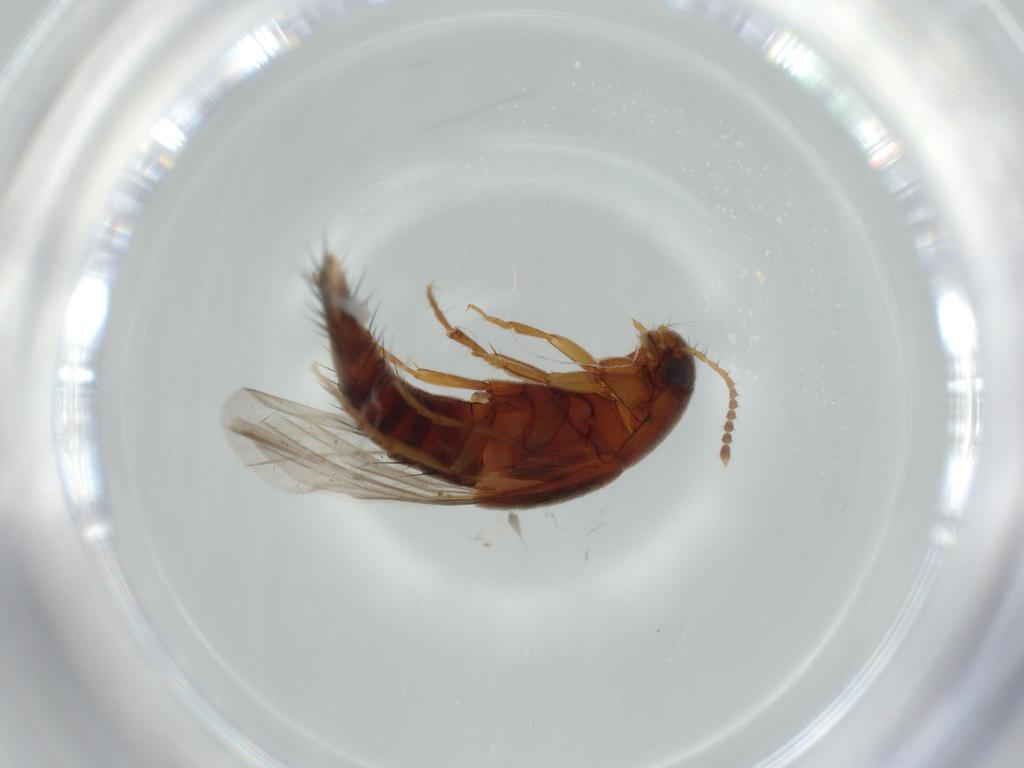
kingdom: Animalia
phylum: Arthropoda
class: Insecta
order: Coleoptera
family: Staphylinidae
